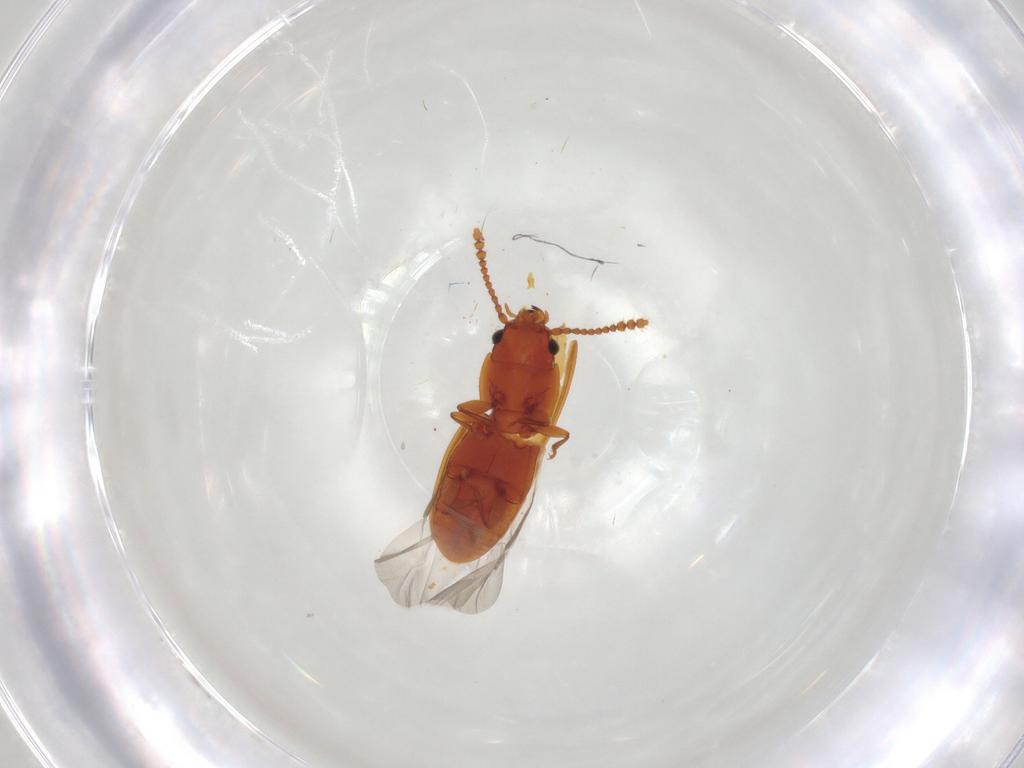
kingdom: Animalia
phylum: Arthropoda
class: Insecta
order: Coleoptera
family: Laemophloeidae
